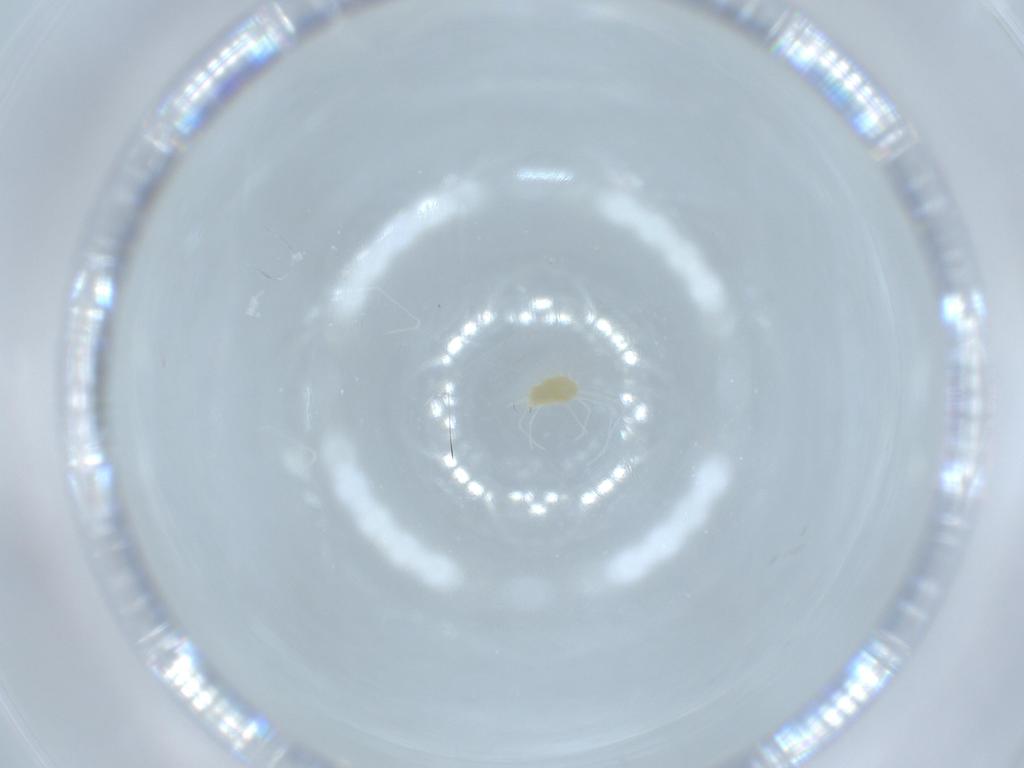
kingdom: Animalia
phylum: Arthropoda
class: Arachnida
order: Trombidiformes
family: Tetranychidae
